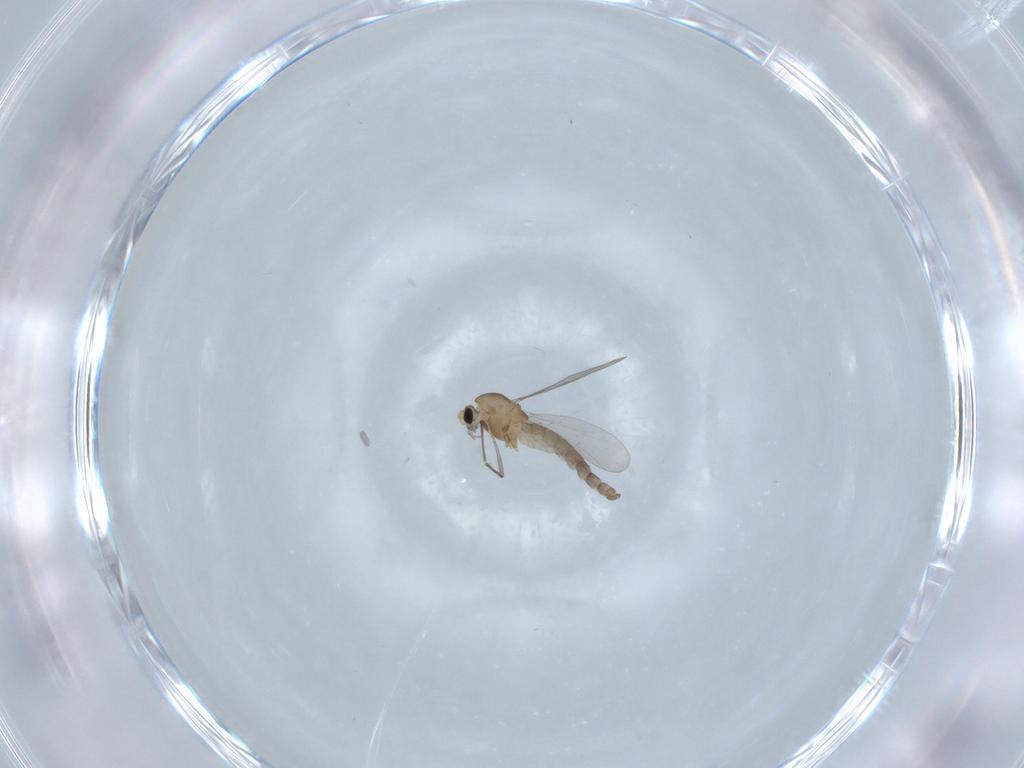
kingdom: Animalia
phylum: Arthropoda
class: Insecta
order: Diptera
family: Chironomidae
